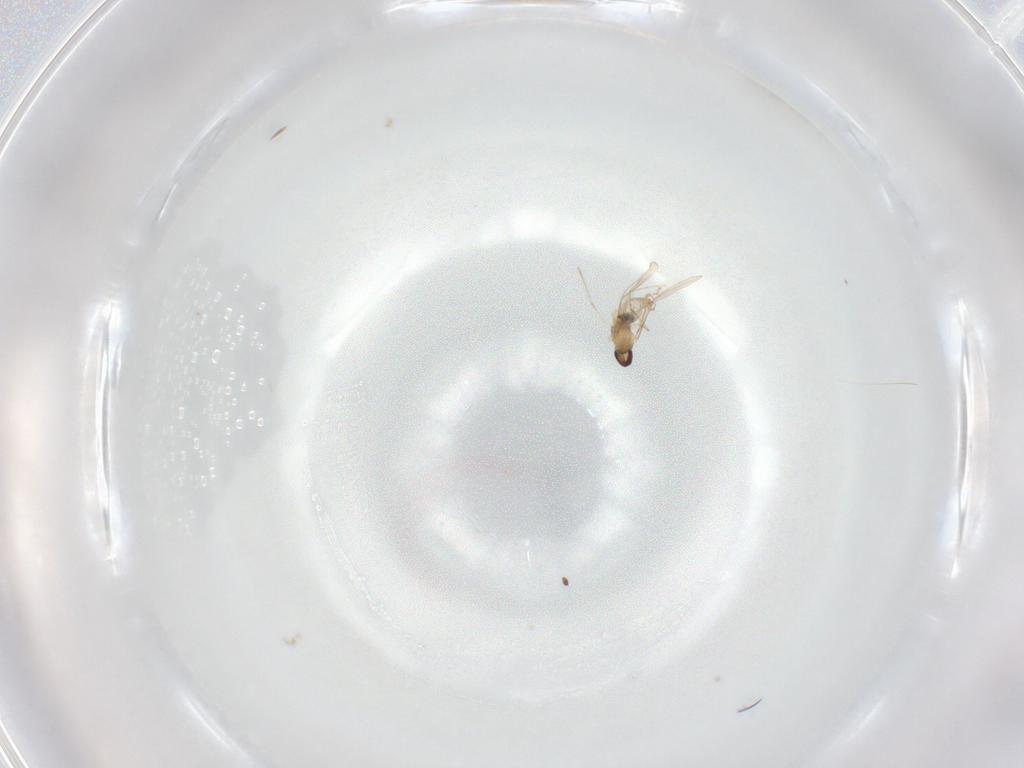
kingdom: Animalia
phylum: Arthropoda
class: Insecta
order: Diptera
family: Cecidomyiidae
